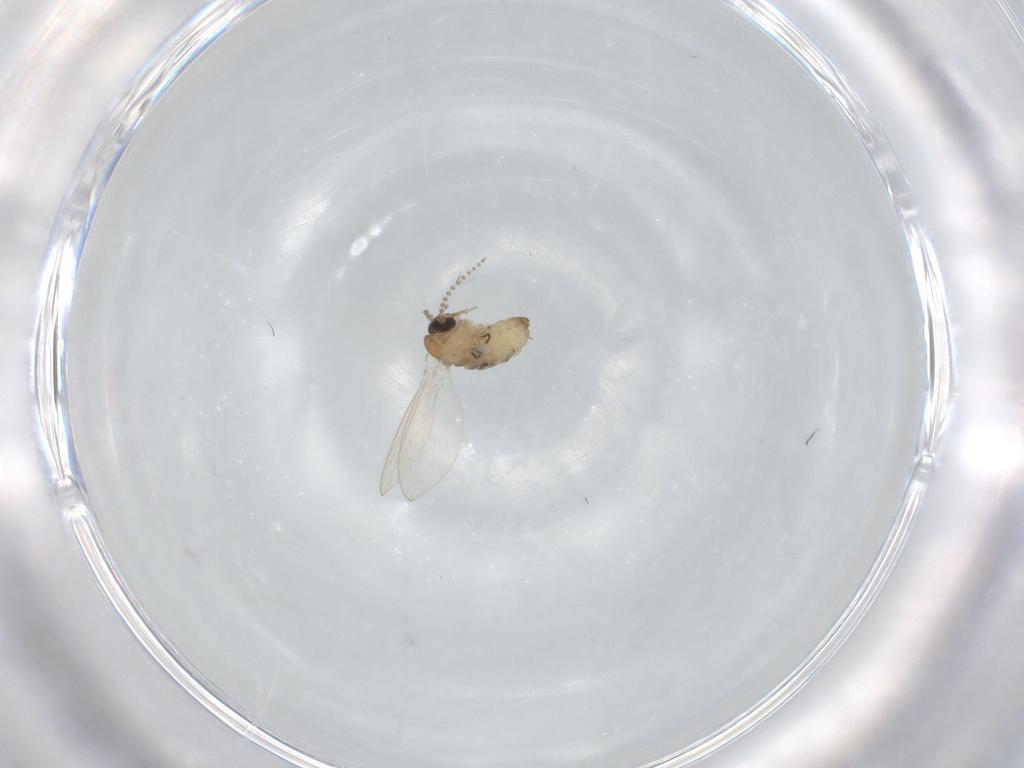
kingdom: Animalia
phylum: Arthropoda
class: Insecta
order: Diptera
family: Psychodidae
